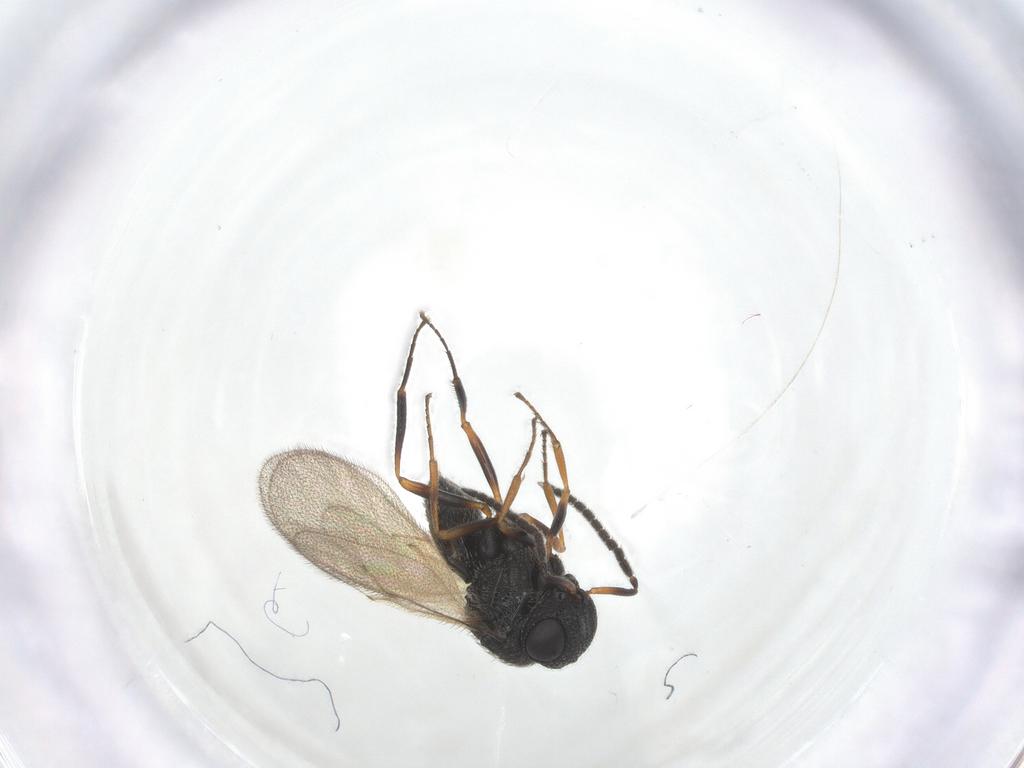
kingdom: Animalia
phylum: Arthropoda
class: Insecta
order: Hymenoptera
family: Scelionidae
